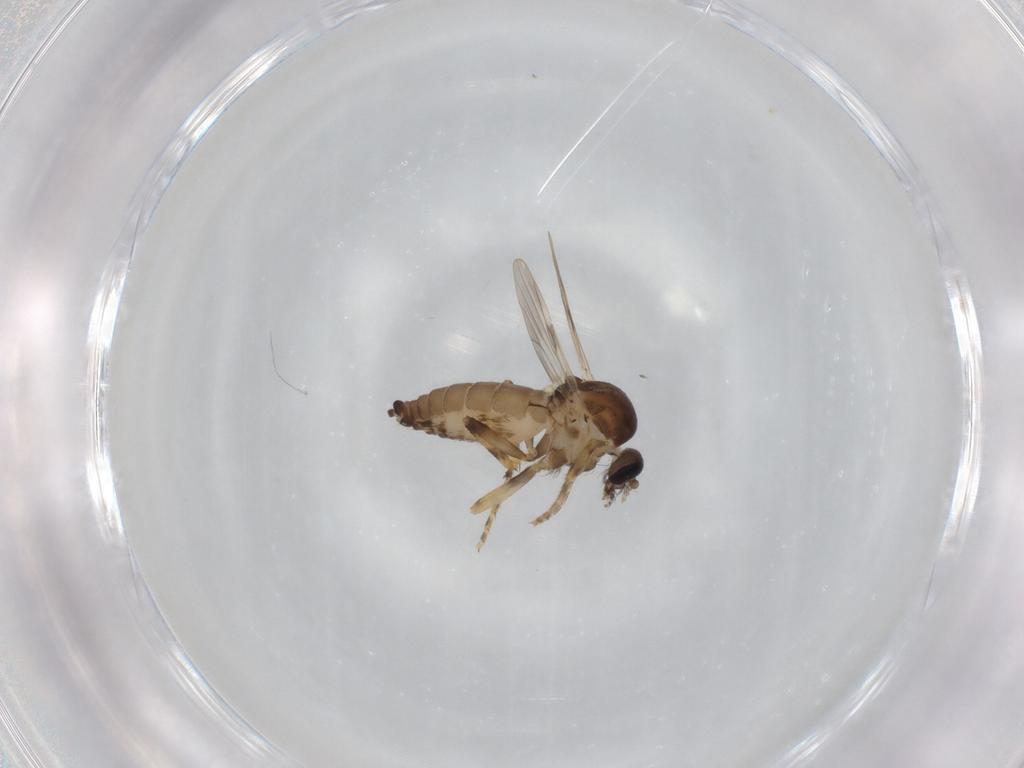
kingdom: Animalia
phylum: Arthropoda
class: Insecta
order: Diptera
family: Ceratopogonidae
